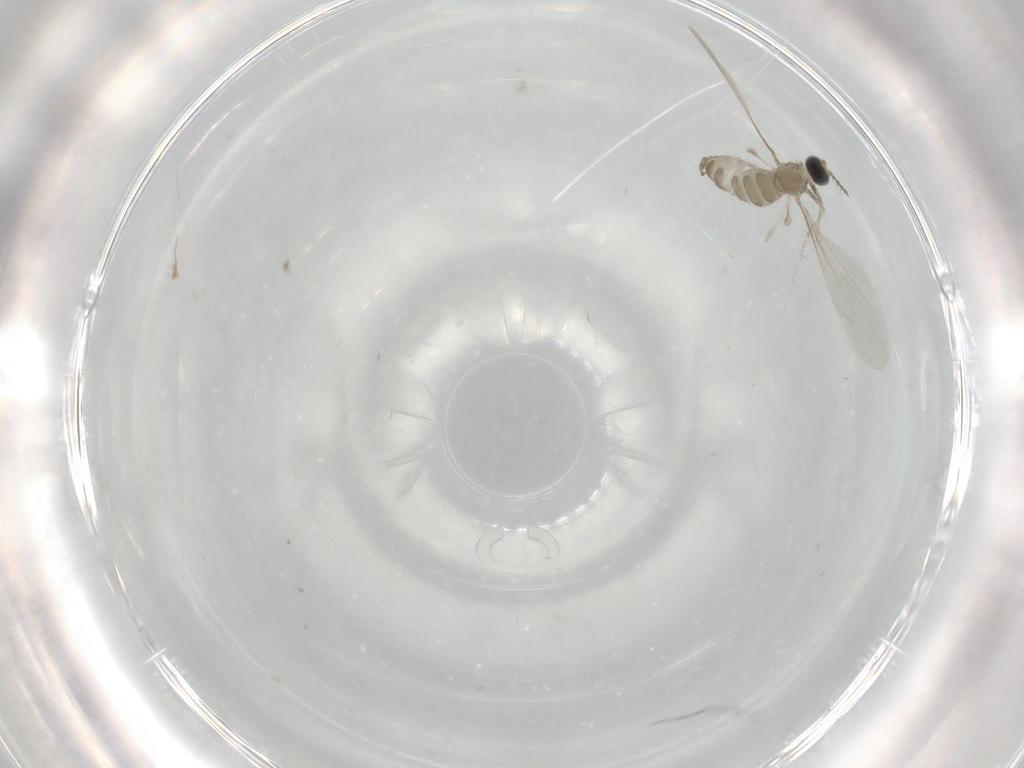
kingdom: Animalia
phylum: Arthropoda
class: Insecta
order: Diptera
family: Cecidomyiidae
